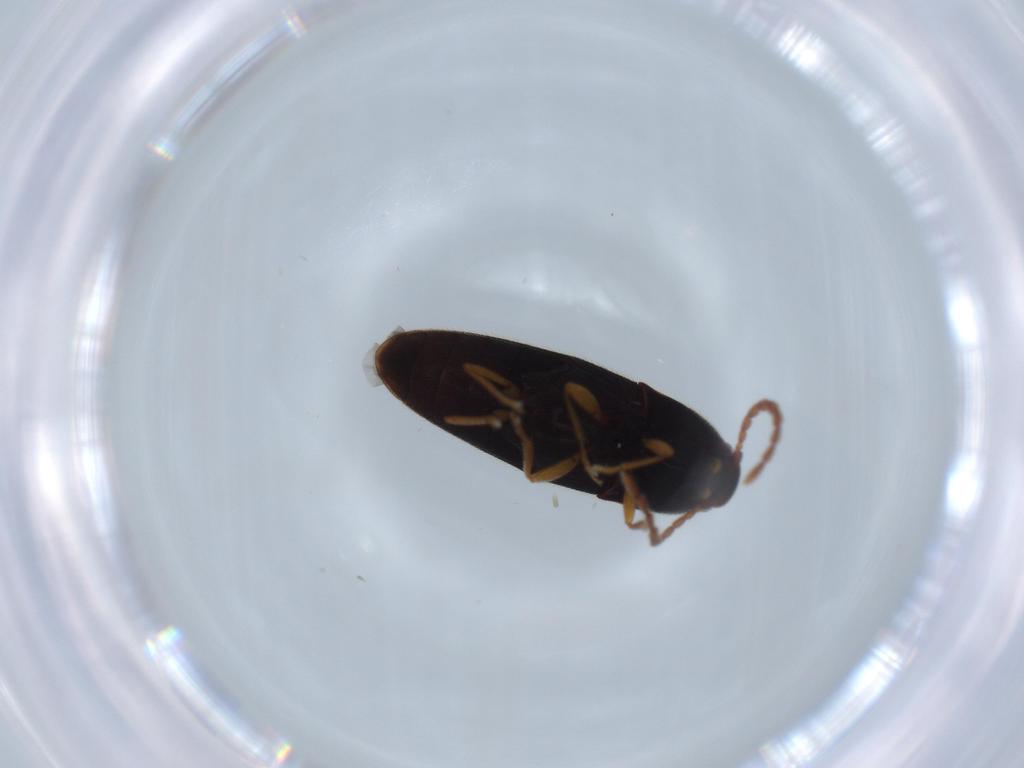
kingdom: Animalia
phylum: Arthropoda
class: Insecta
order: Coleoptera
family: Elateridae
